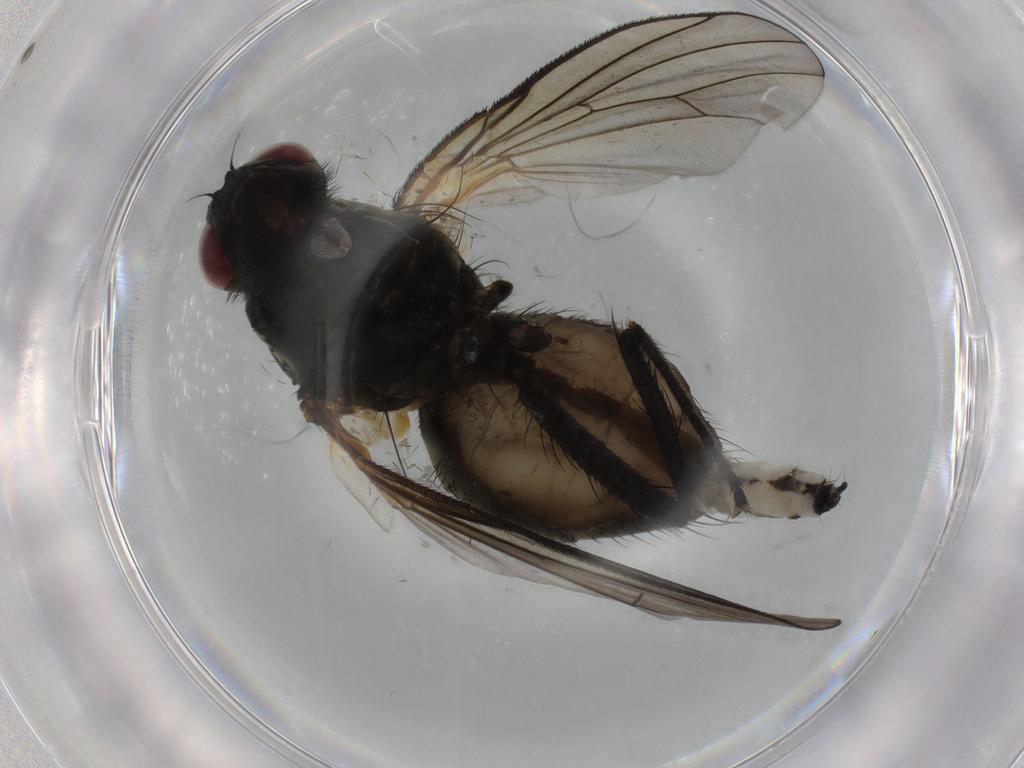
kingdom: Animalia
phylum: Arthropoda
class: Insecta
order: Diptera
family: Muscidae
